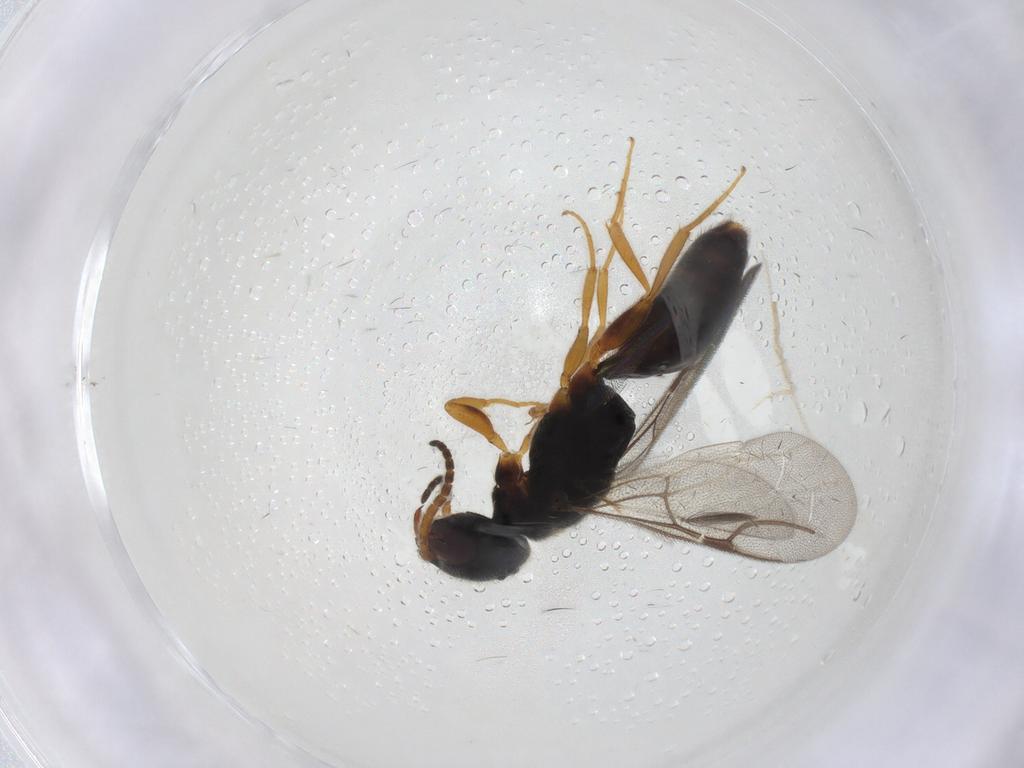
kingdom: Animalia
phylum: Arthropoda
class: Insecta
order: Hymenoptera
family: Bethylidae
